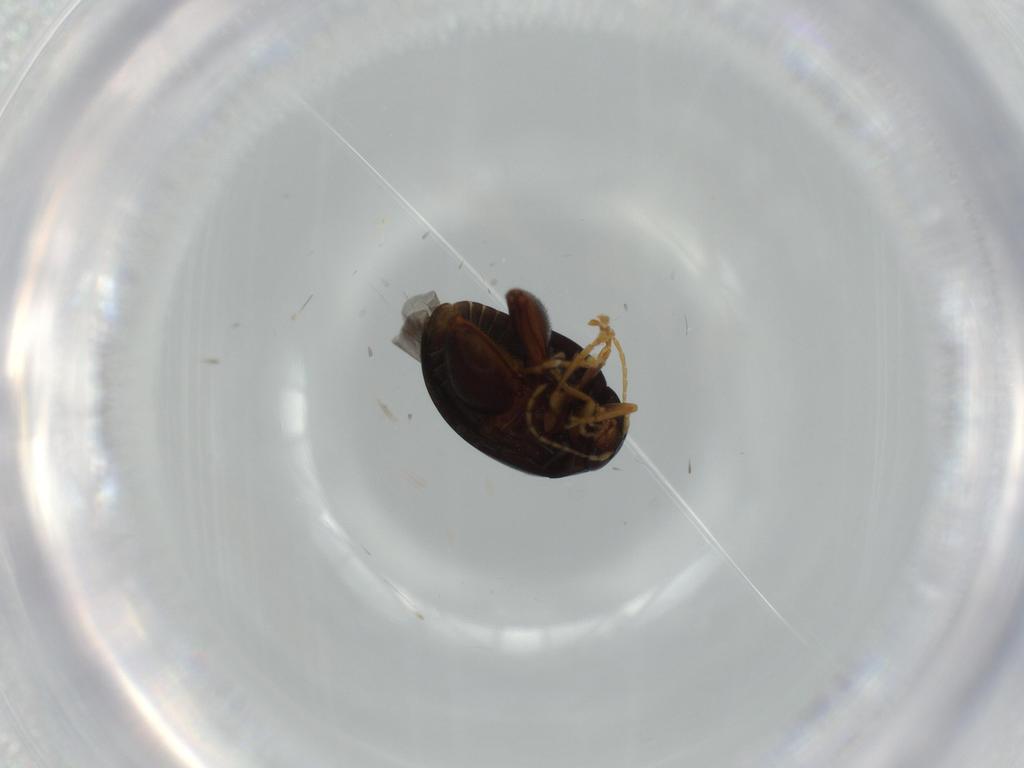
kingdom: Animalia
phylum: Arthropoda
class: Insecta
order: Coleoptera
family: Chrysomelidae
